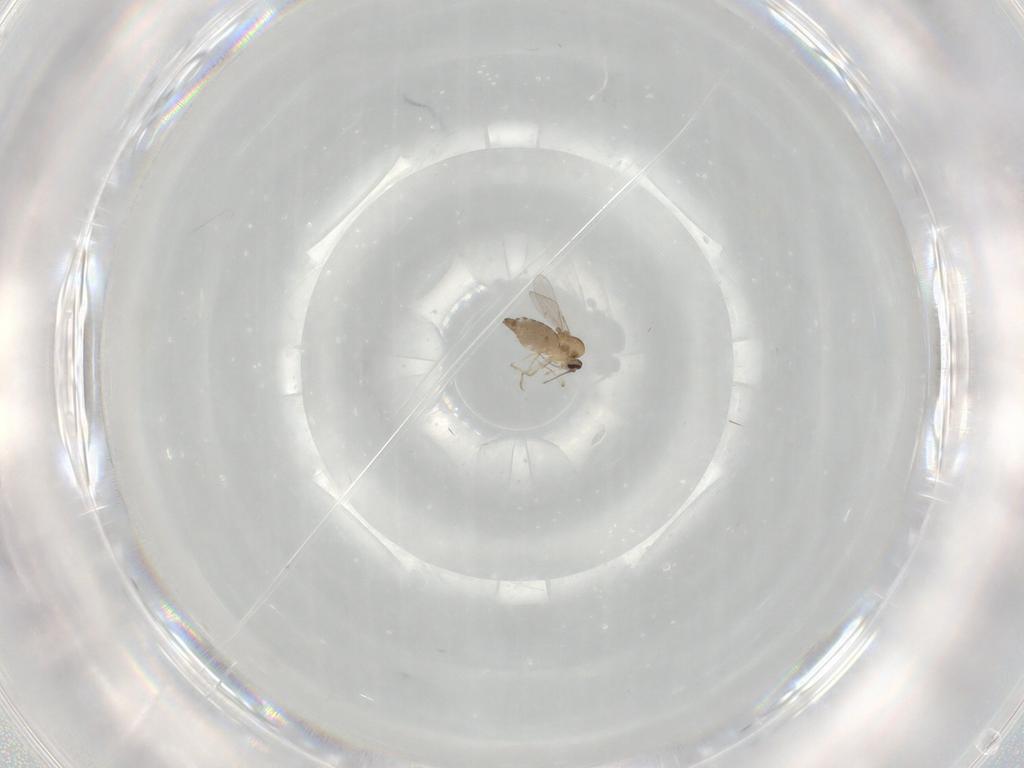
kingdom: Animalia
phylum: Arthropoda
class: Insecta
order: Diptera
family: Ceratopogonidae
